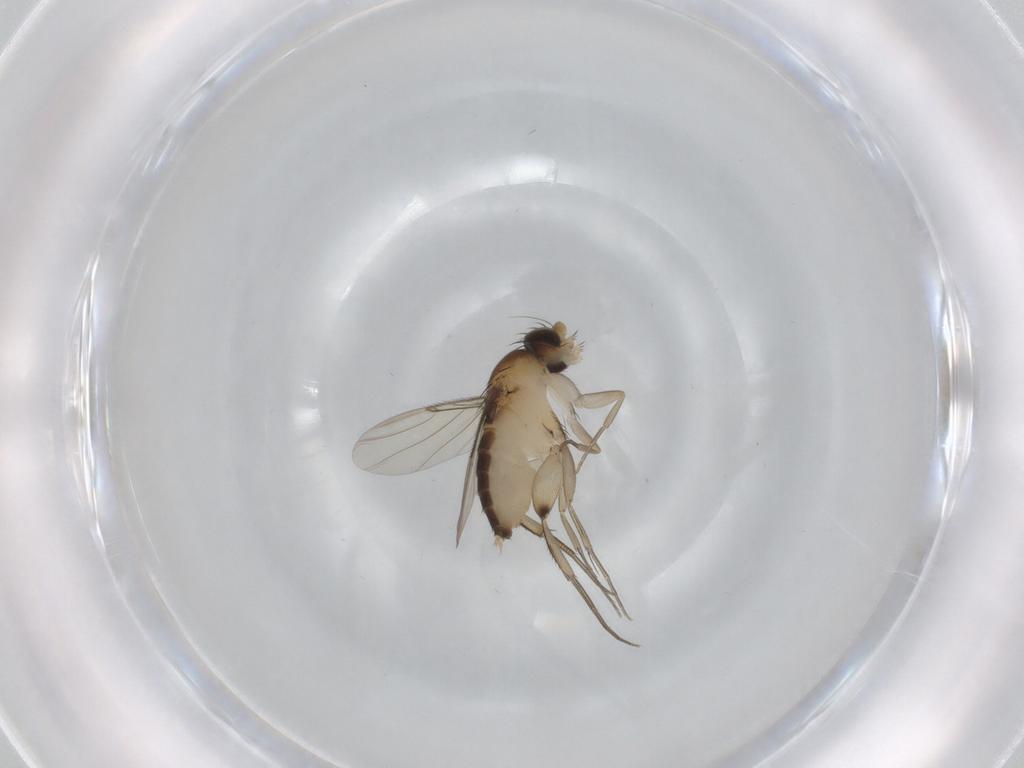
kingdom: Animalia
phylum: Arthropoda
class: Insecta
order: Diptera
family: Phoridae
